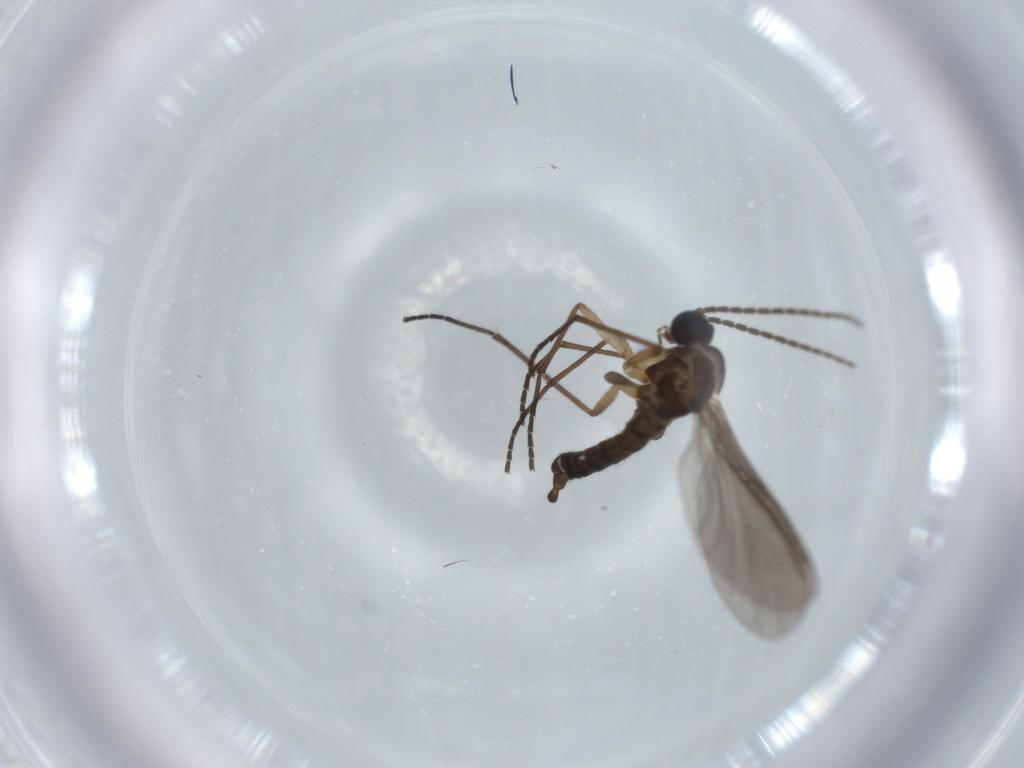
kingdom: Animalia
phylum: Arthropoda
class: Insecta
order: Diptera
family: Sciaridae
